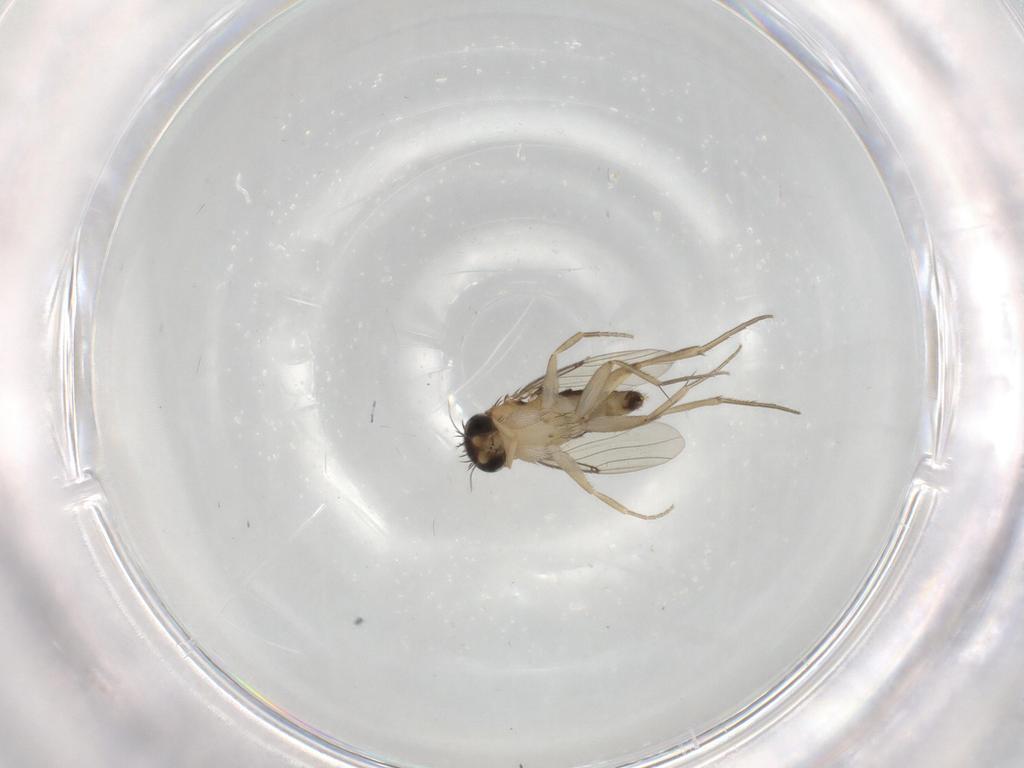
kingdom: Animalia
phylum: Arthropoda
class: Insecta
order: Diptera
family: Phoridae
